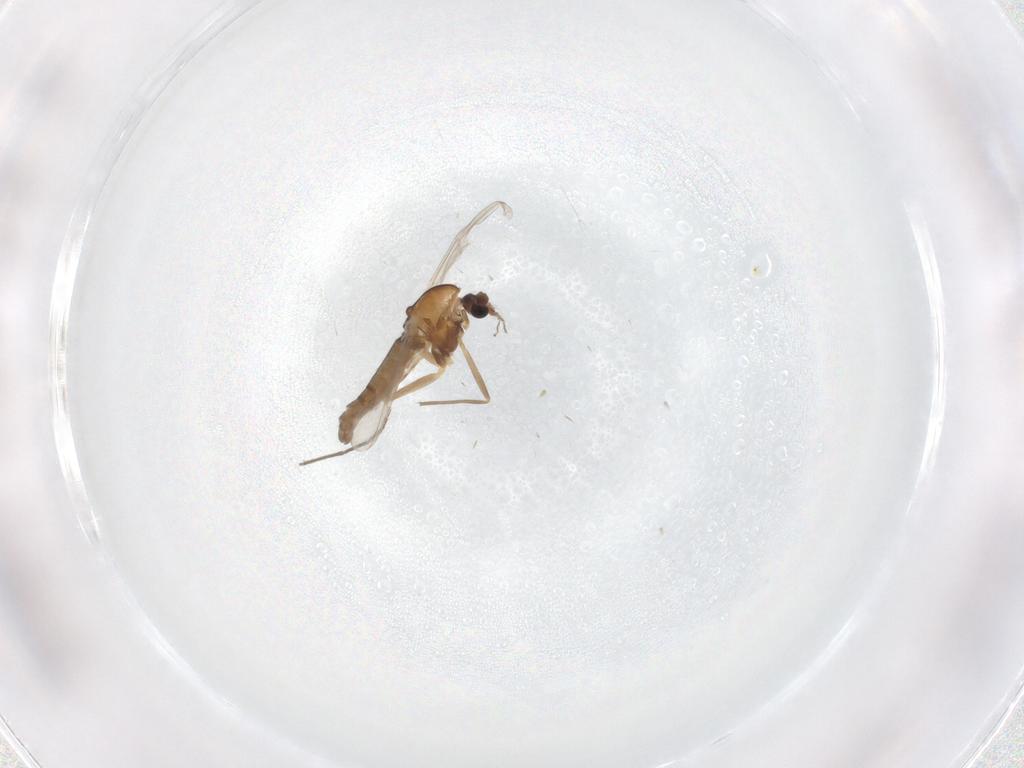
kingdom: Animalia
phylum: Arthropoda
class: Insecta
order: Diptera
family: Chironomidae
